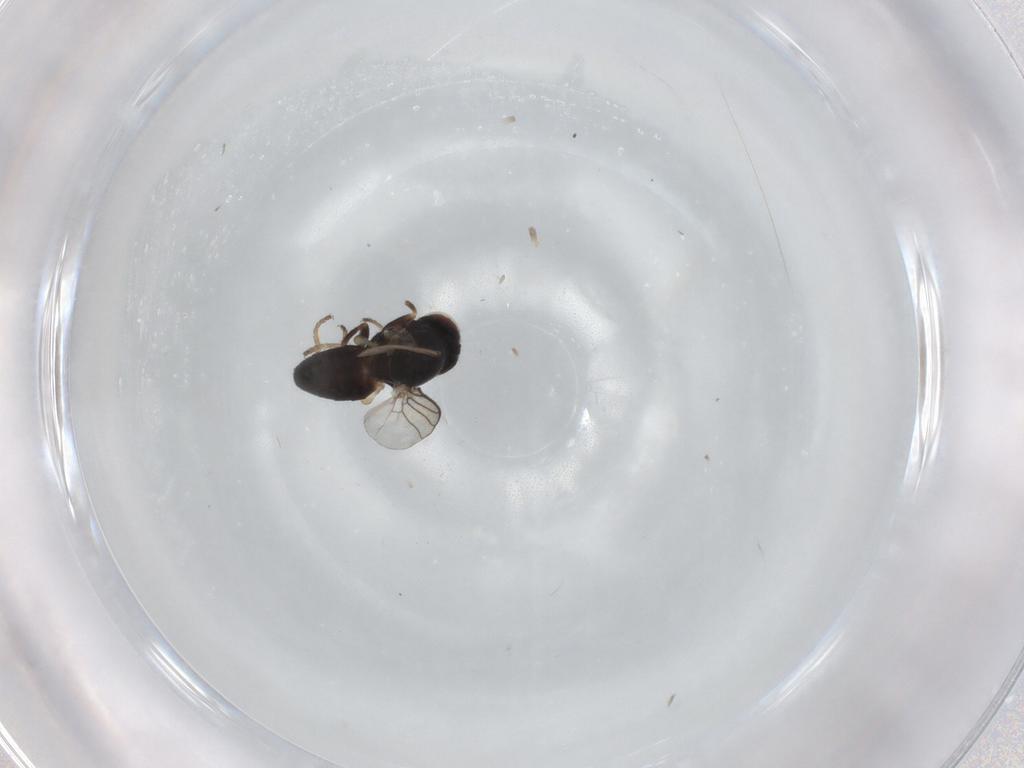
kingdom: Animalia
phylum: Arthropoda
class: Insecta
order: Diptera
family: Chloropidae
